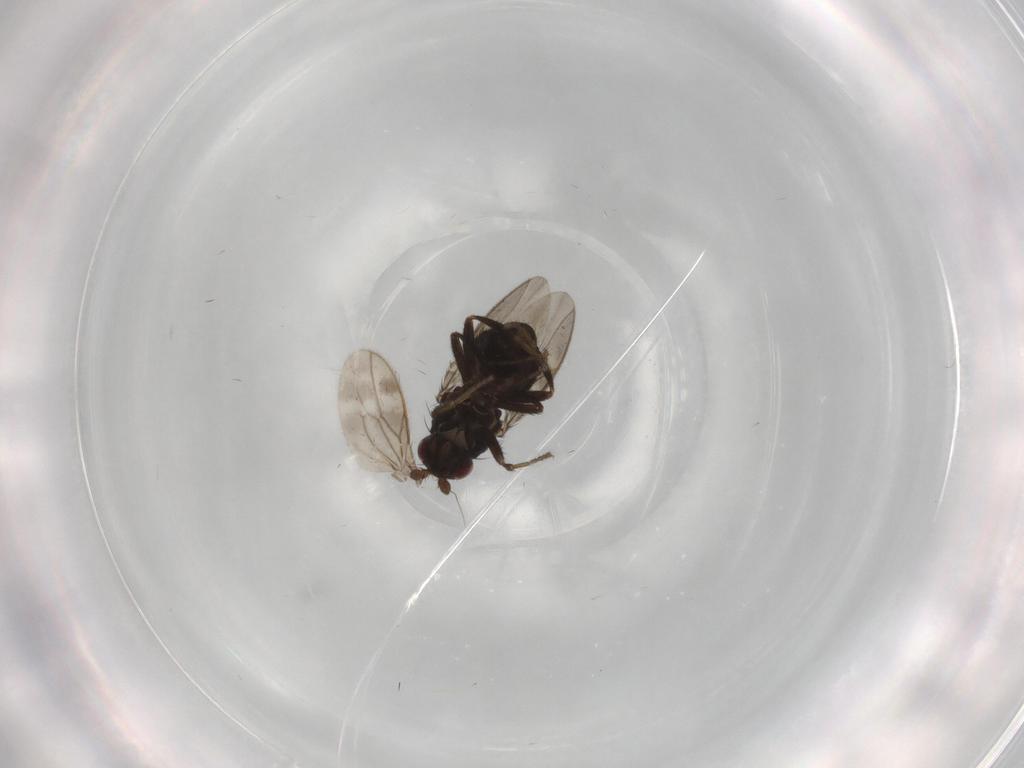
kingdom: Animalia
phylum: Arthropoda
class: Insecta
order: Diptera
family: Sphaeroceridae
